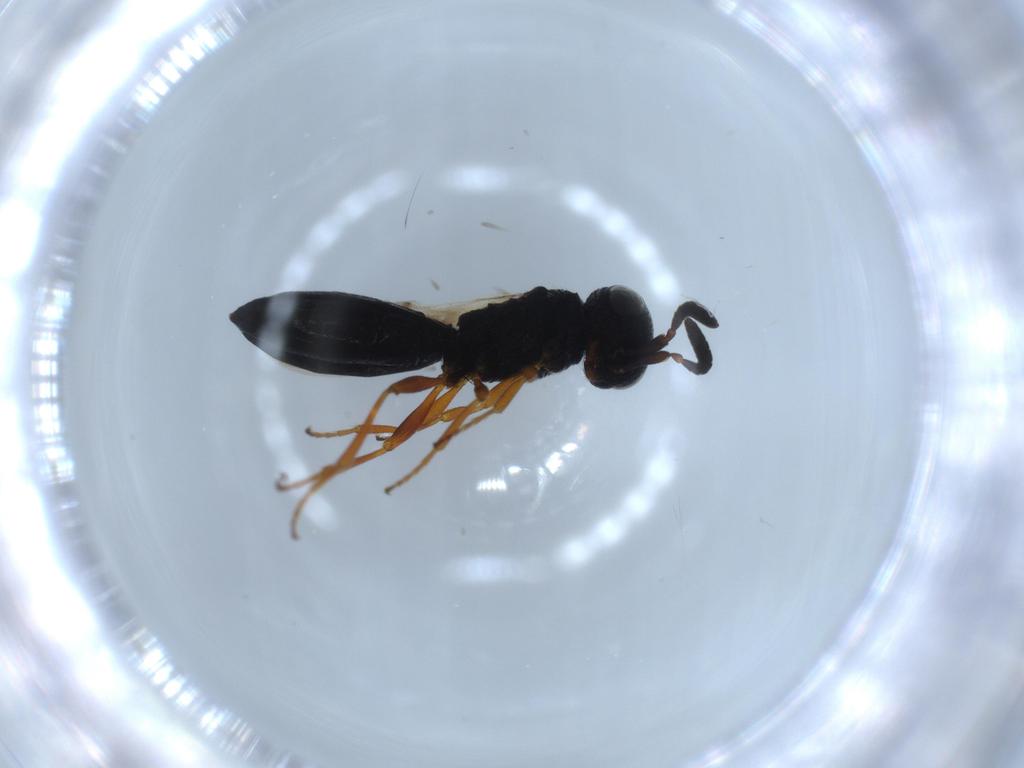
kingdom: Animalia
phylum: Arthropoda
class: Insecta
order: Hymenoptera
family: Scelionidae
